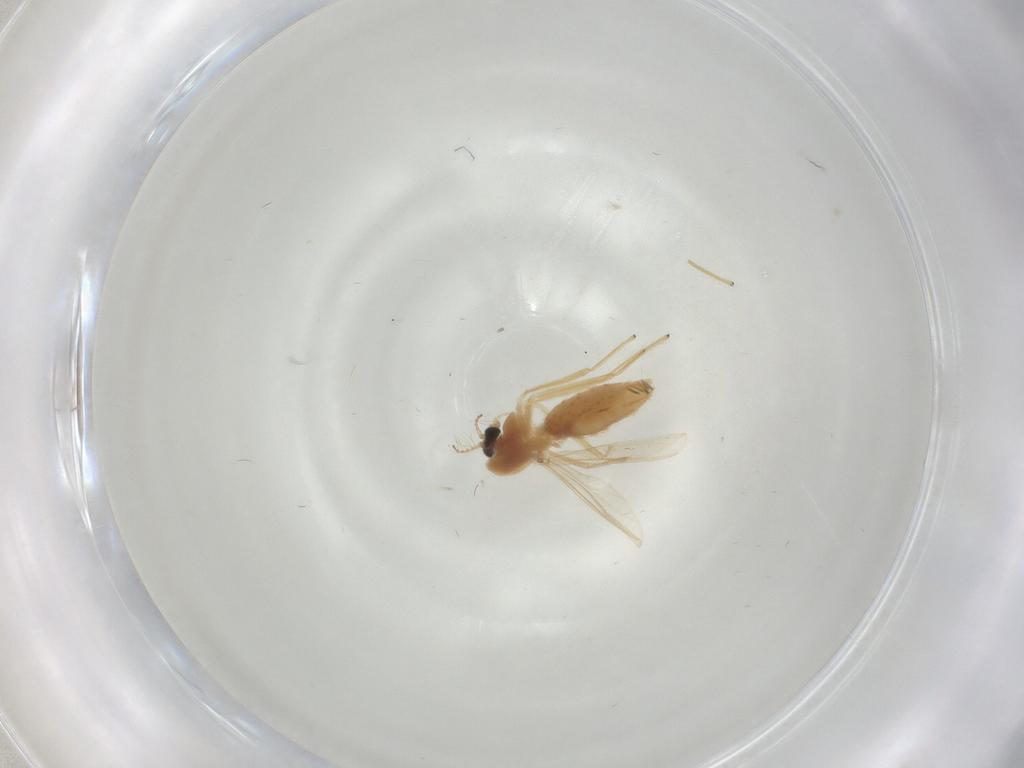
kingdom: Animalia
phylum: Arthropoda
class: Insecta
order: Diptera
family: Chironomidae
